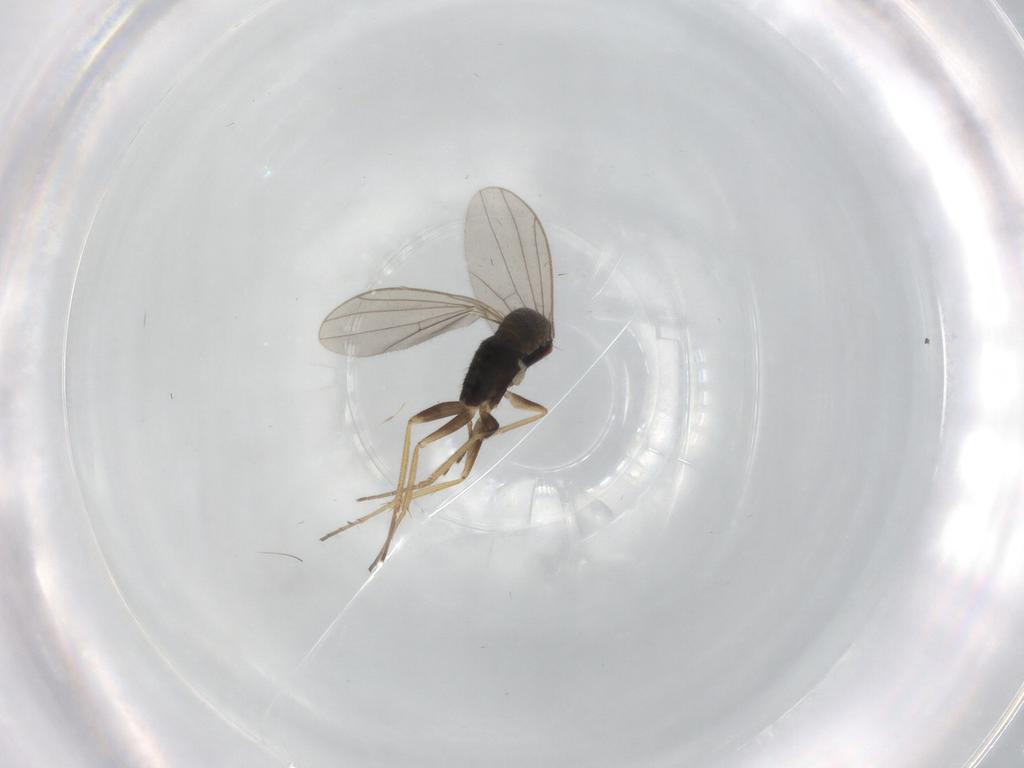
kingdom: Animalia
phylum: Arthropoda
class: Insecta
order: Diptera
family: Dolichopodidae
